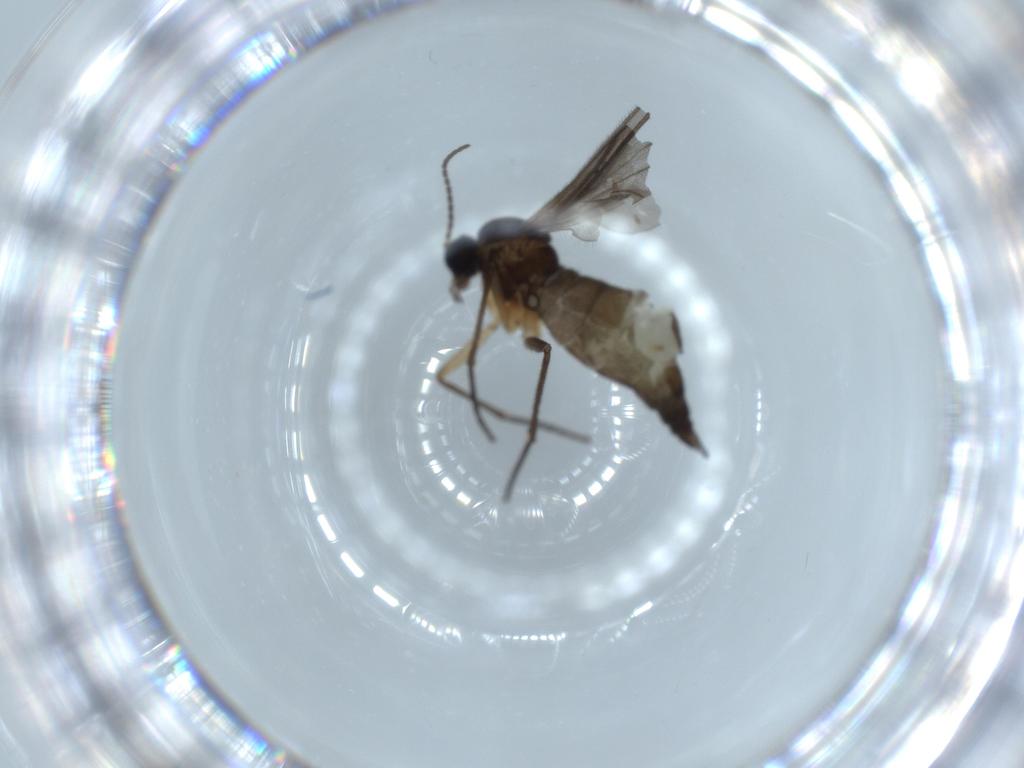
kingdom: Animalia
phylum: Arthropoda
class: Insecta
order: Diptera
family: Sciaridae
